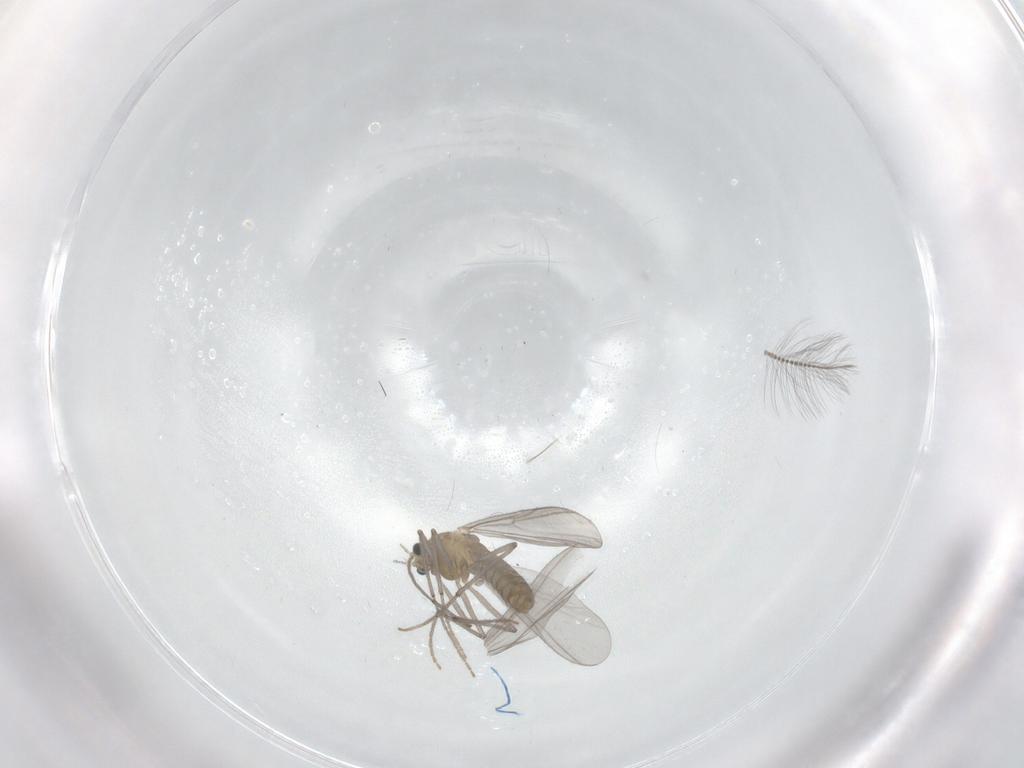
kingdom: Animalia
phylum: Arthropoda
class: Insecta
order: Diptera
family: Chironomidae
